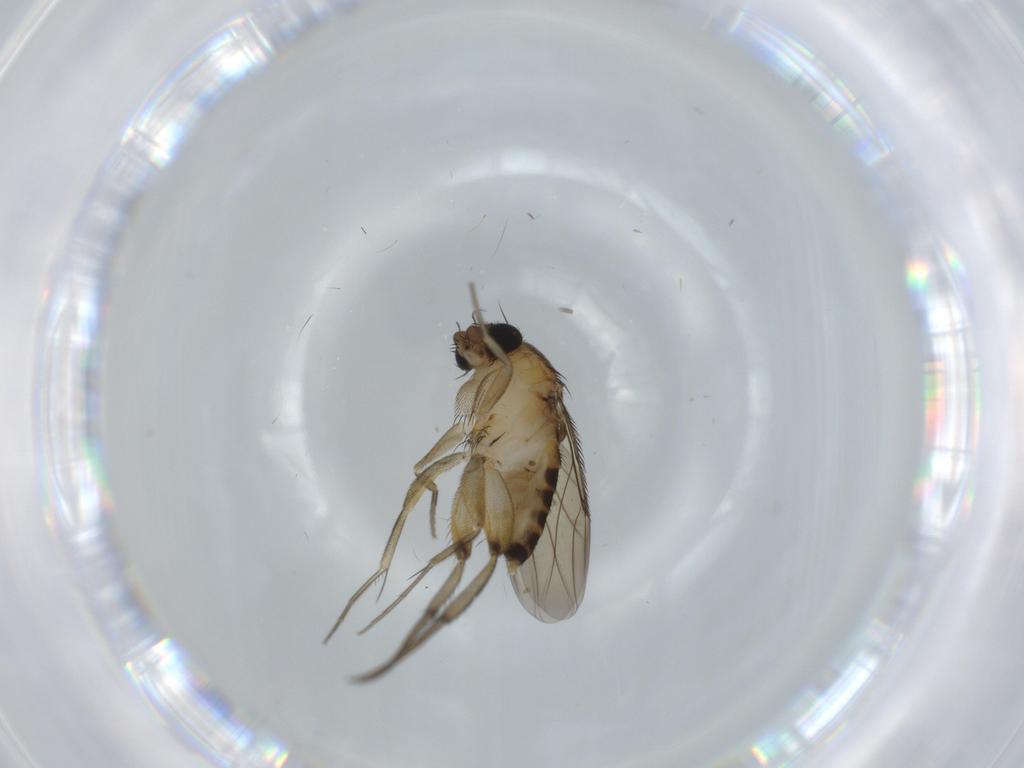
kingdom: Animalia
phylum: Arthropoda
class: Insecta
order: Diptera
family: Phoridae
